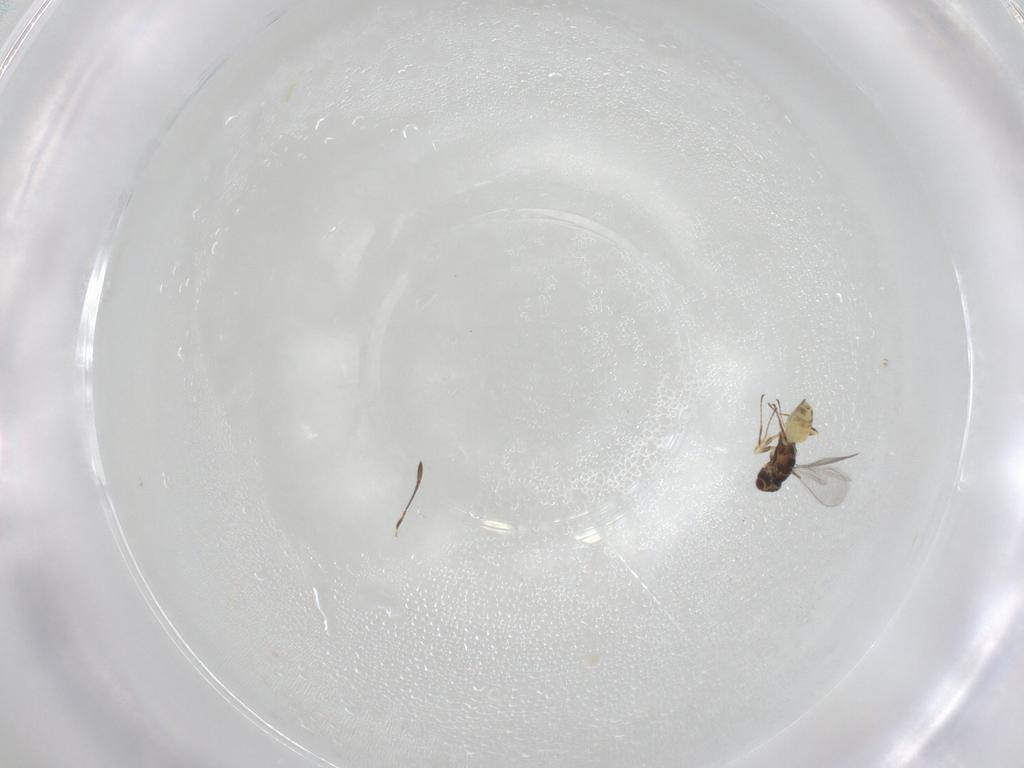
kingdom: Animalia
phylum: Arthropoda
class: Insecta
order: Hymenoptera
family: Mymaridae
